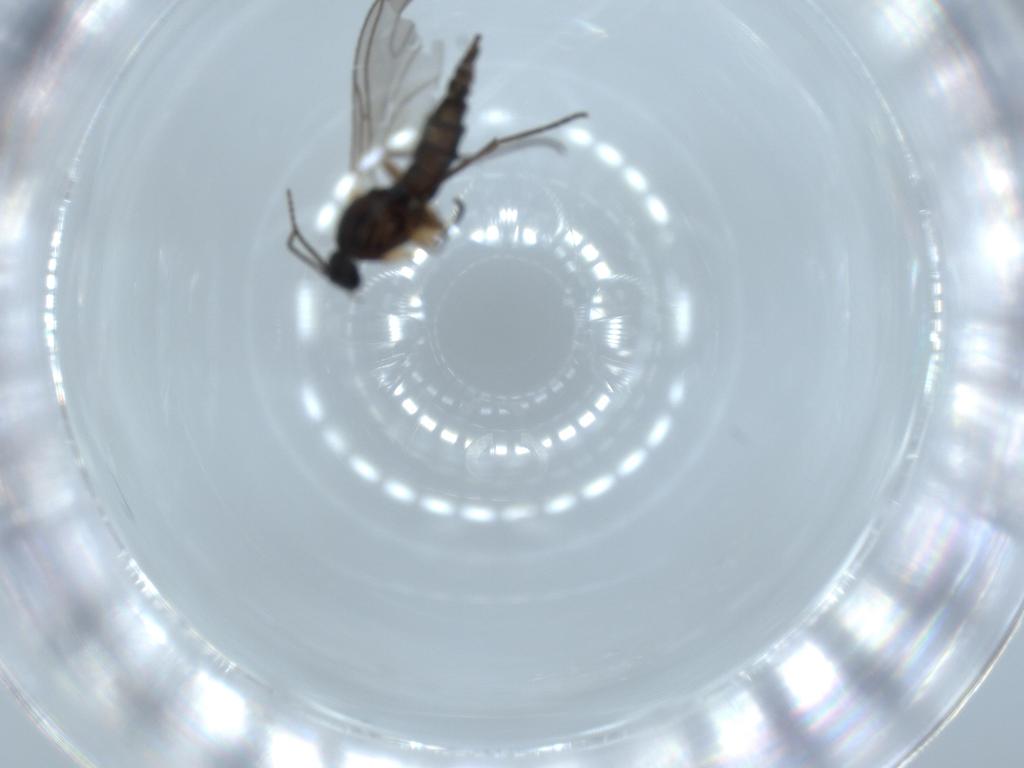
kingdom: Animalia
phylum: Arthropoda
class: Insecta
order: Diptera
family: Sciaridae
